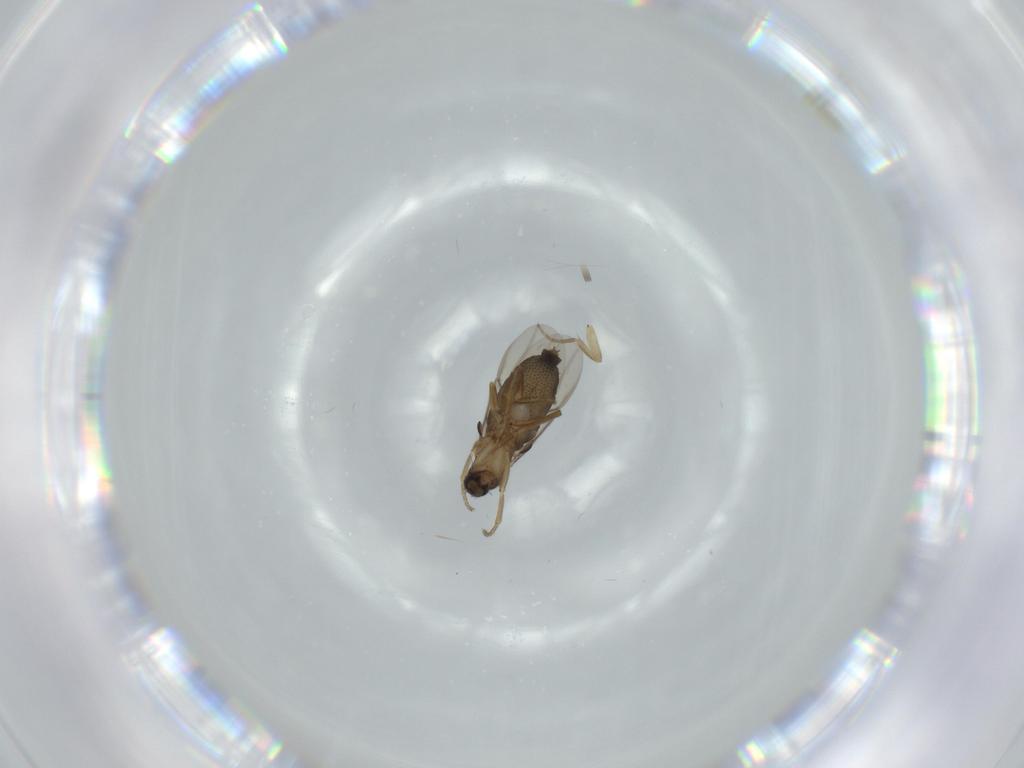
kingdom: Animalia
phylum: Arthropoda
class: Insecta
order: Diptera
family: Phoridae
